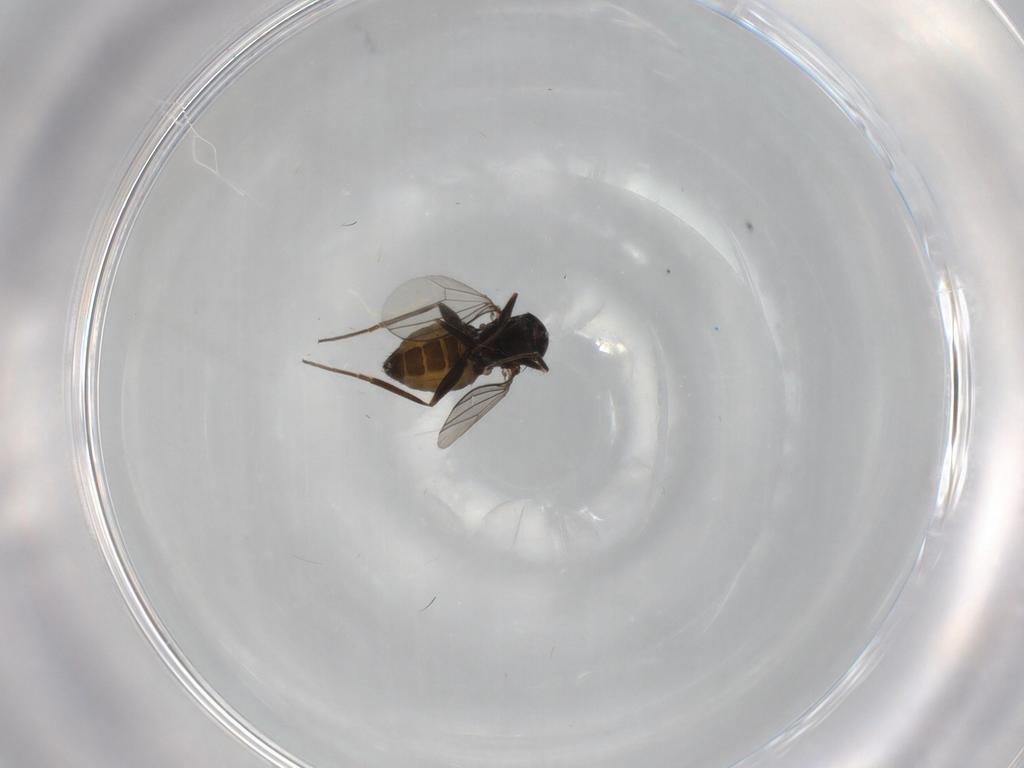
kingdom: Animalia
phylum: Arthropoda
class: Insecta
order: Diptera
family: Dolichopodidae
